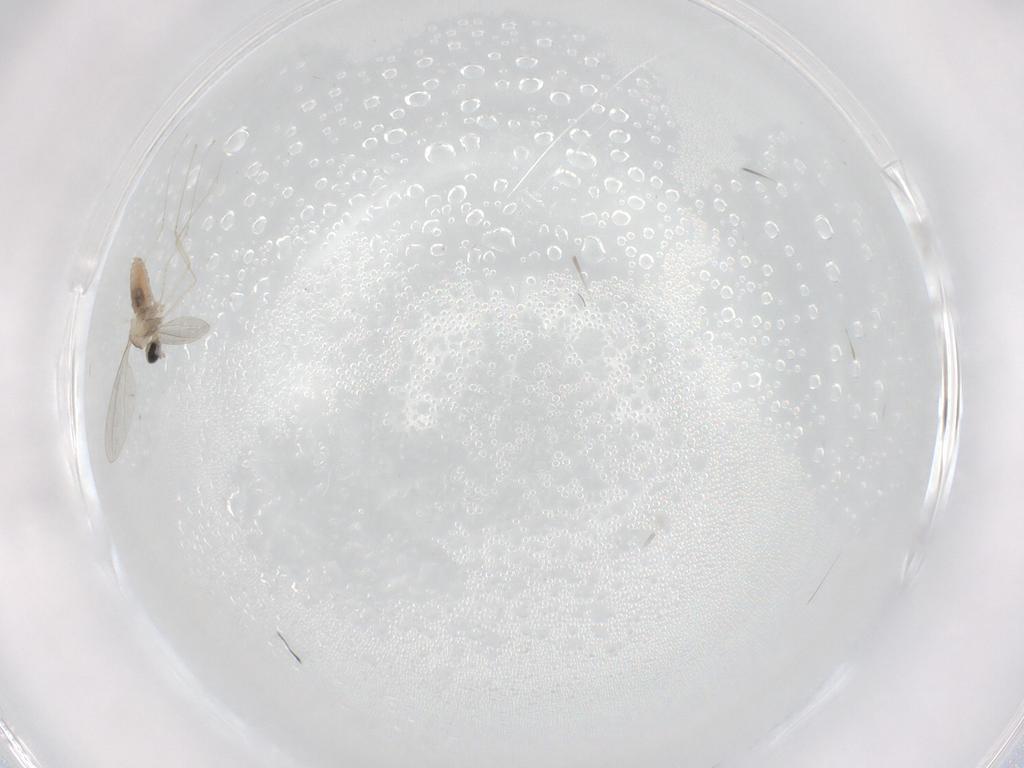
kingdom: Animalia
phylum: Arthropoda
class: Insecta
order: Diptera
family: Cecidomyiidae
